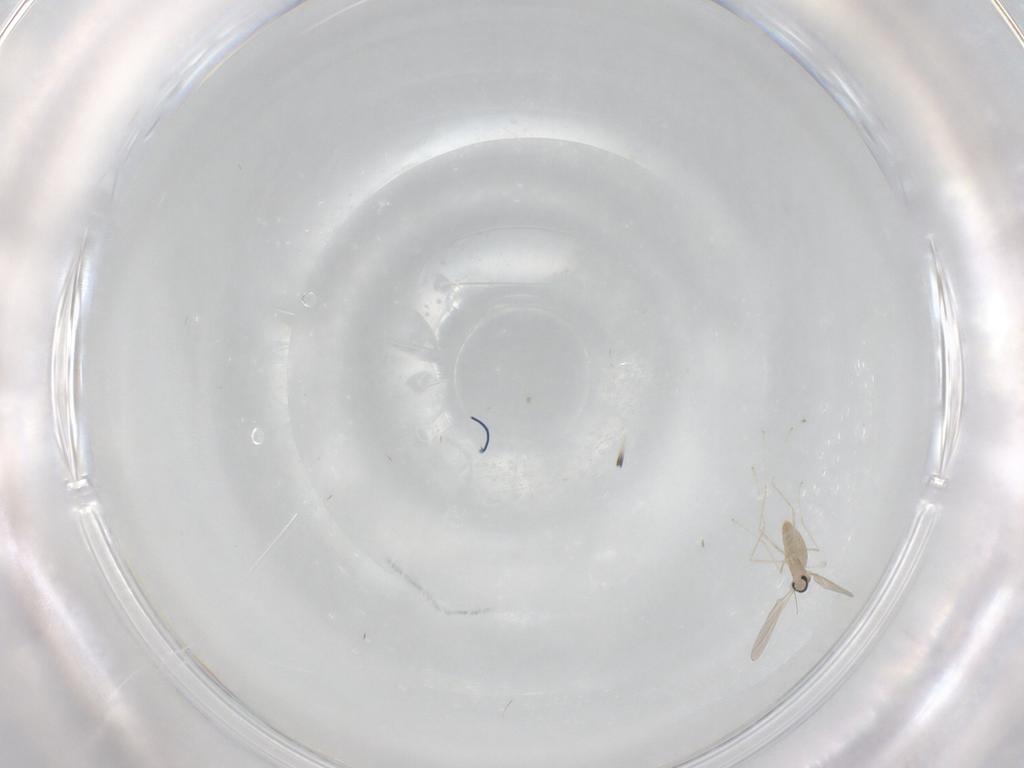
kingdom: Animalia
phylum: Arthropoda
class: Insecta
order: Diptera
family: Cecidomyiidae
